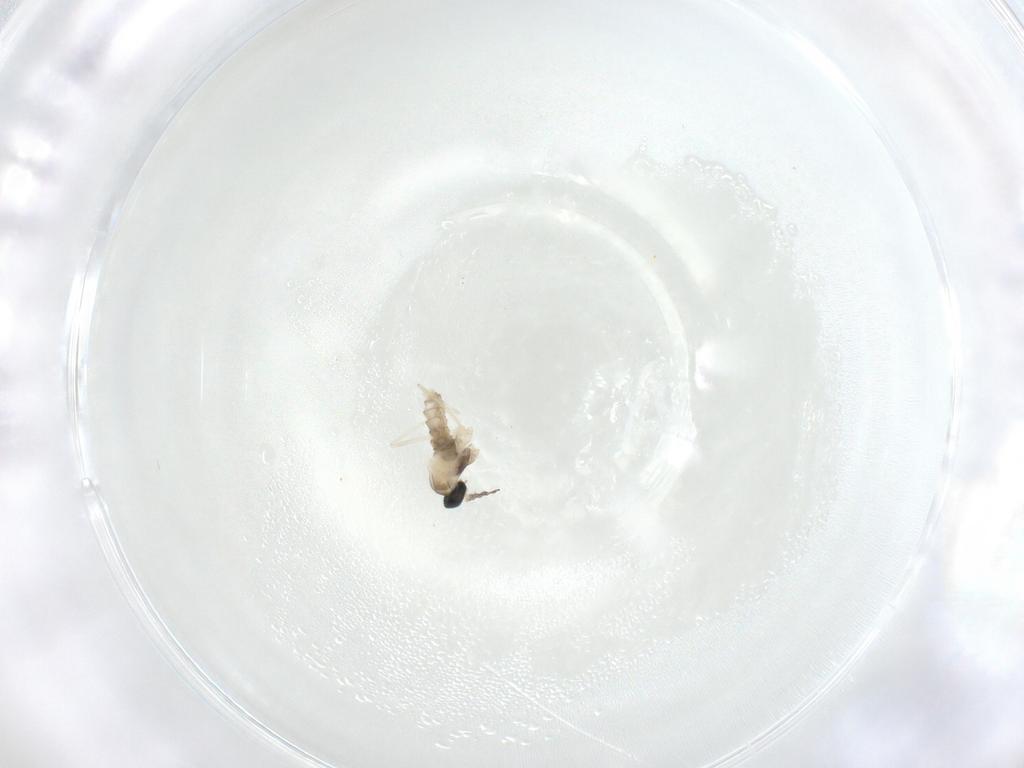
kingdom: Animalia
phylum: Arthropoda
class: Insecta
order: Diptera
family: Cecidomyiidae
